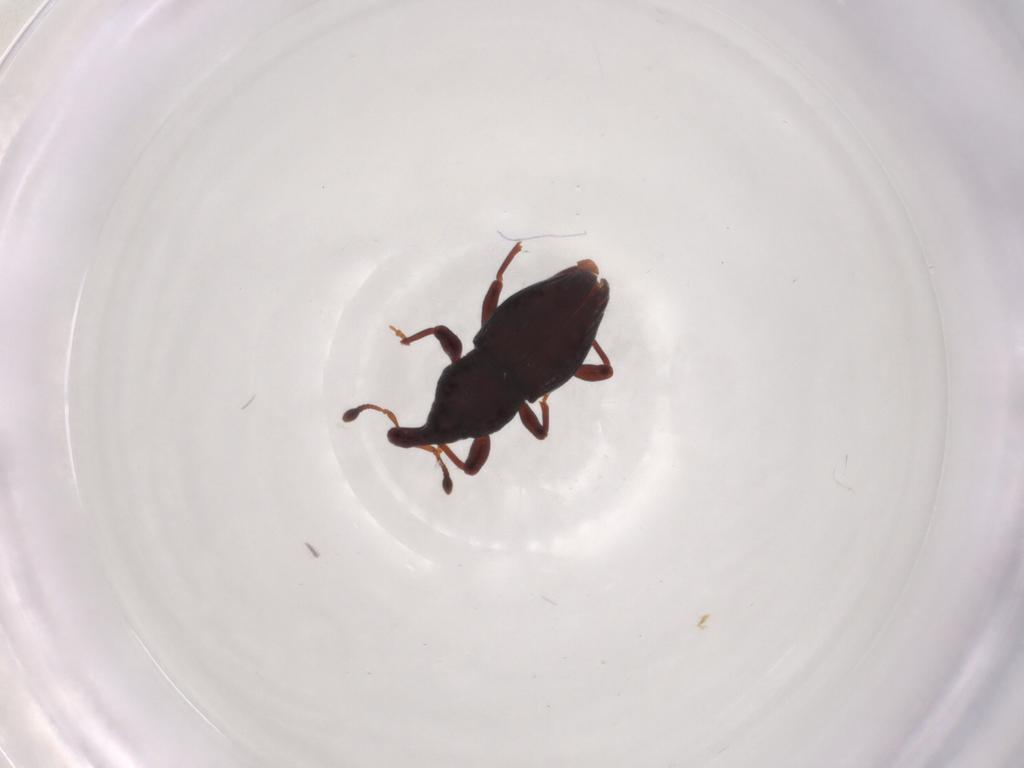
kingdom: Animalia
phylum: Arthropoda
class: Insecta
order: Coleoptera
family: Curculionidae
